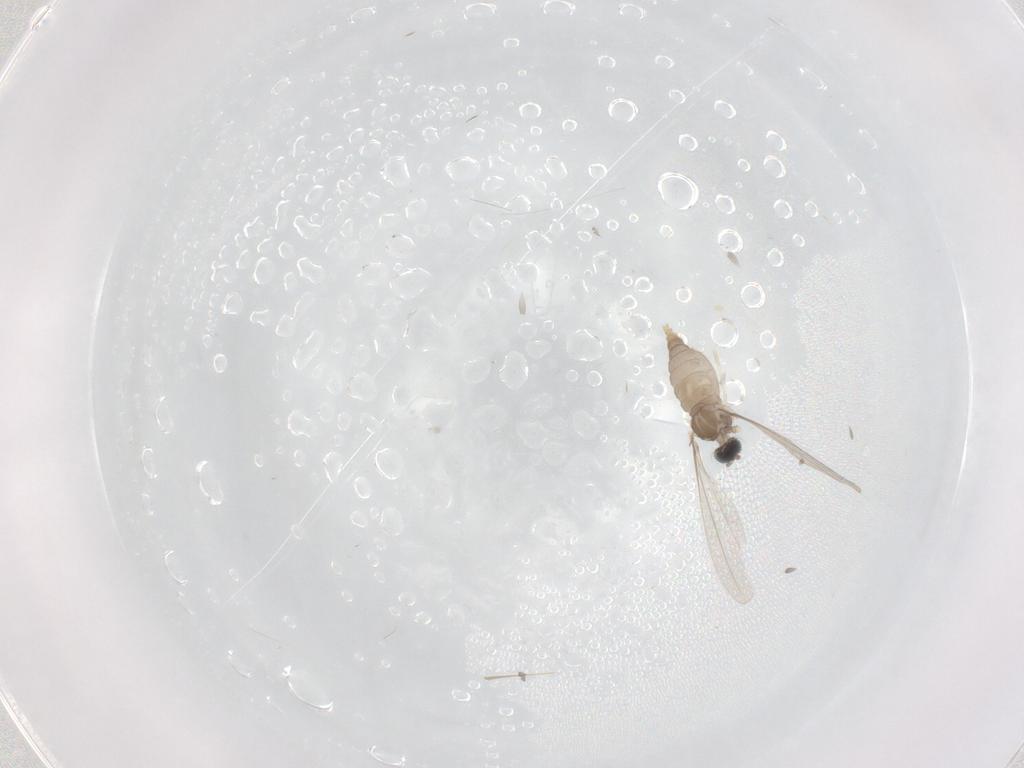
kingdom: Animalia
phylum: Arthropoda
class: Insecta
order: Diptera
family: Cecidomyiidae
